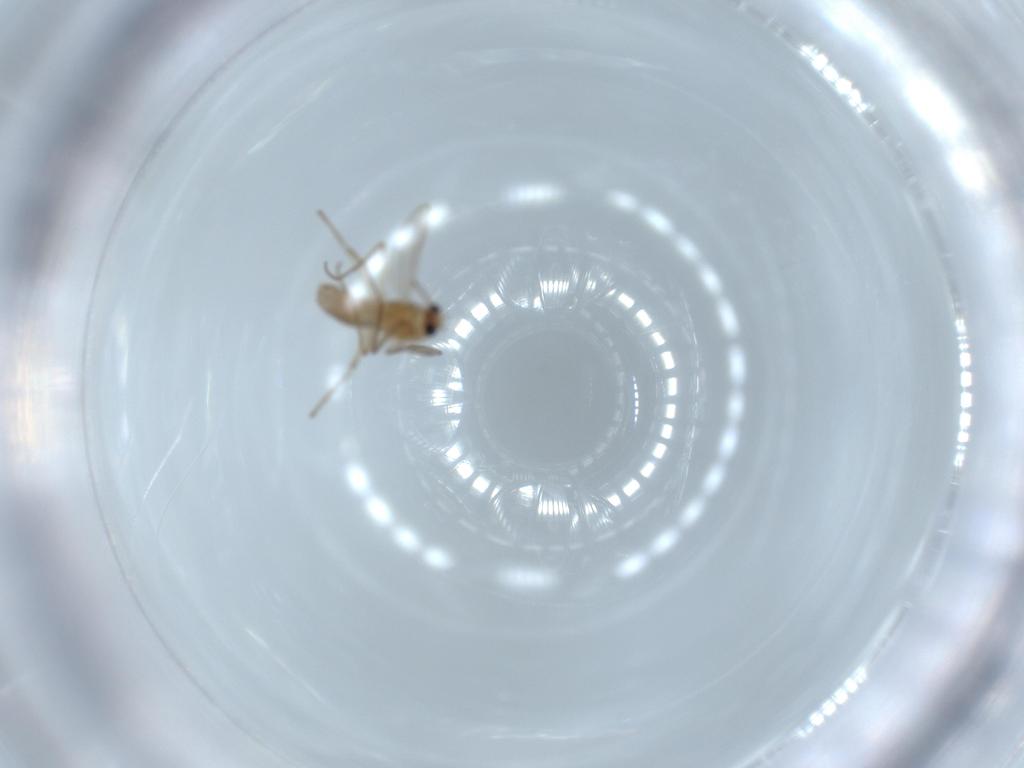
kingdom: Animalia
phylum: Arthropoda
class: Insecta
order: Diptera
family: Chironomidae
